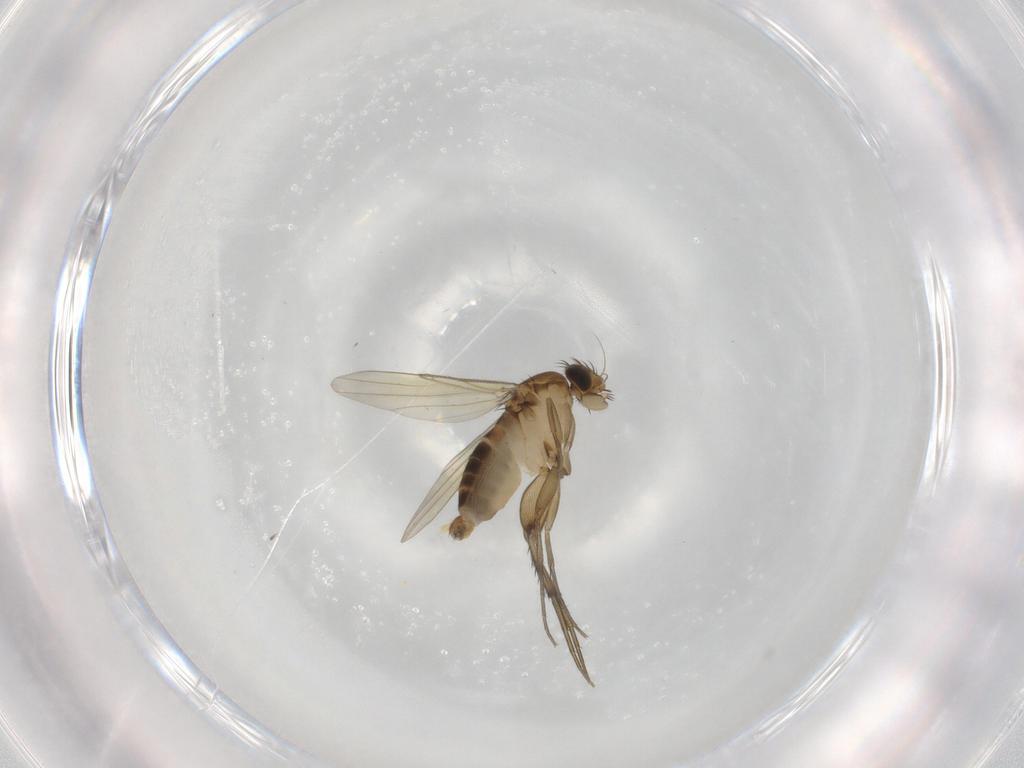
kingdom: Animalia
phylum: Arthropoda
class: Insecta
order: Diptera
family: Phoridae
